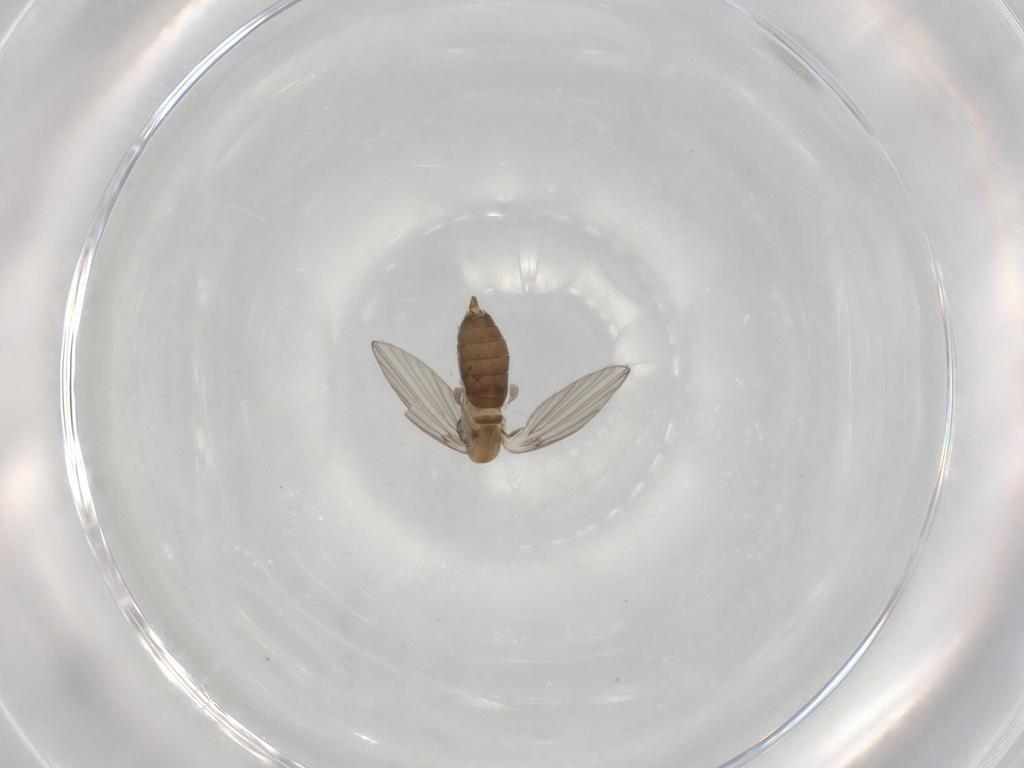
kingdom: Animalia
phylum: Arthropoda
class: Insecta
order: Diptera
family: Psychodidae
